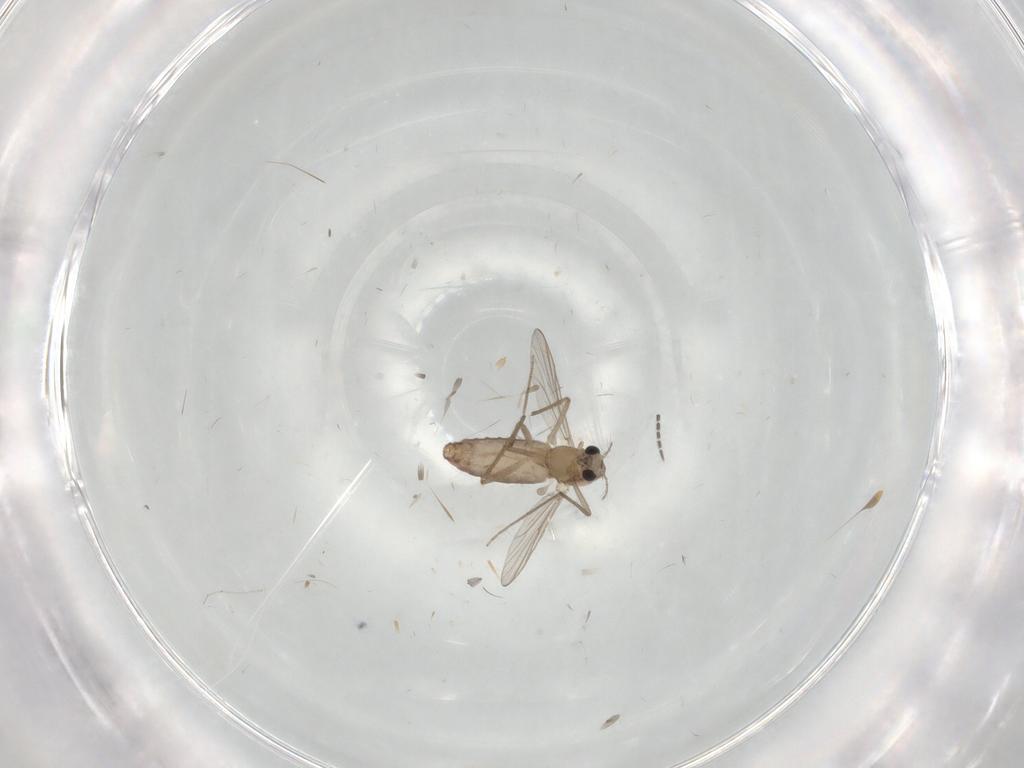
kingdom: Animalia
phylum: Arthropoda
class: Insecta
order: Diptera
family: Chironomidae
